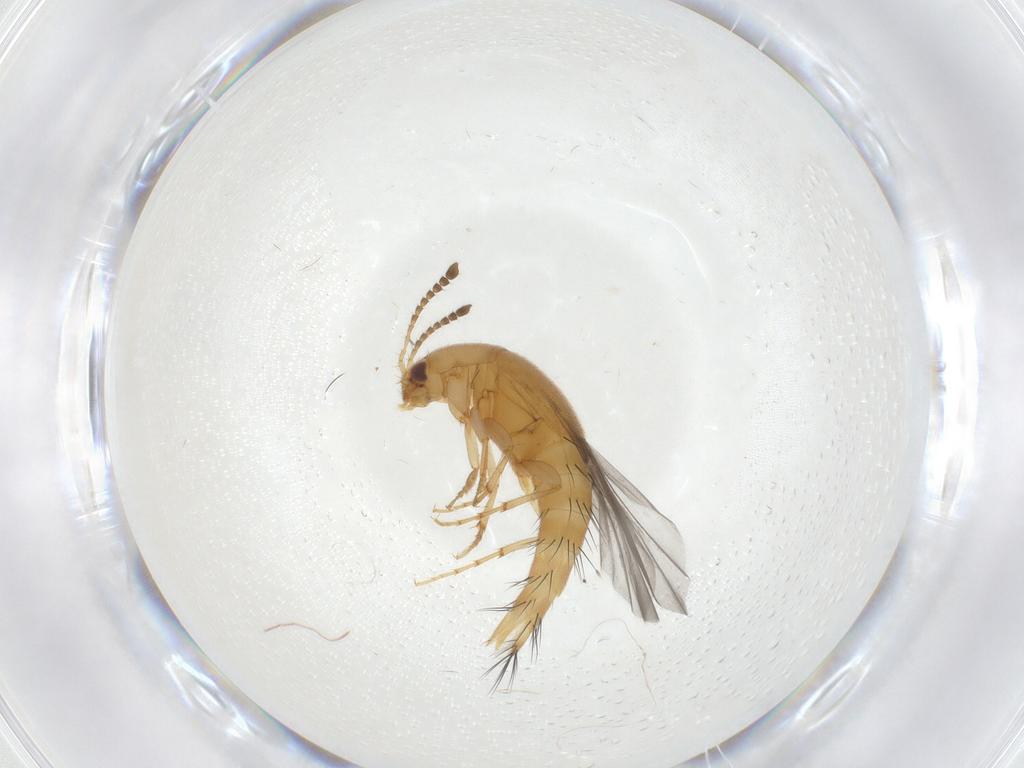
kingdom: Animalia
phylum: Arthropoda
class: Insecta
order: Coleoptera
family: Staphylinidae
